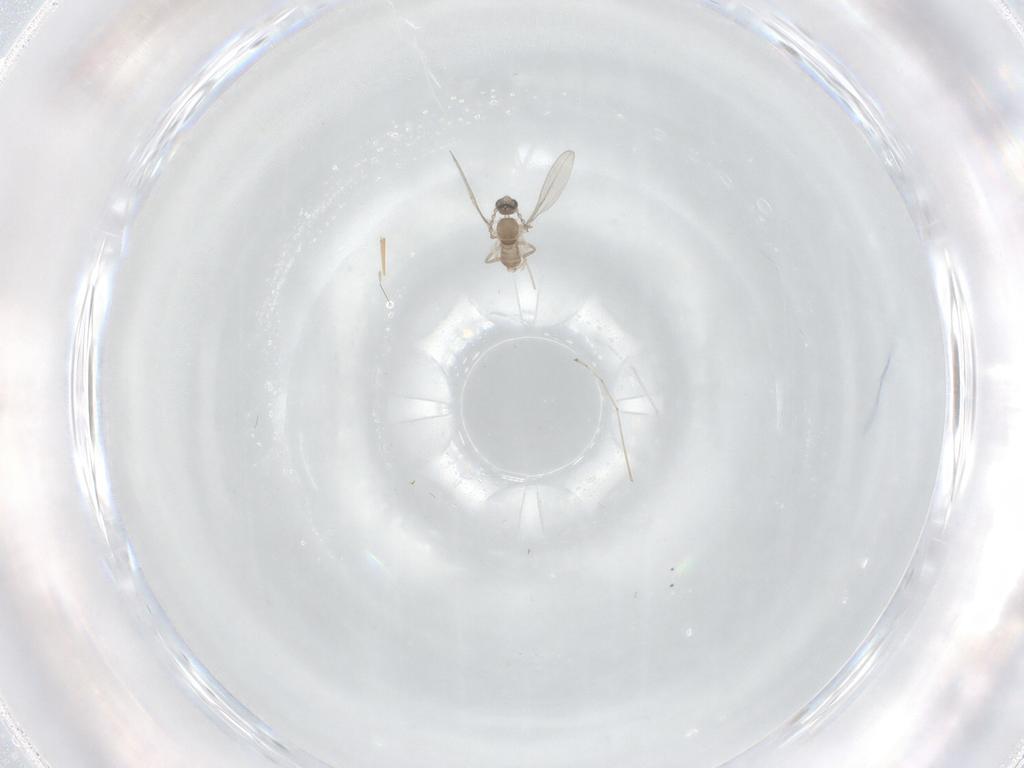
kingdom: Animalia
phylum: Arthropoda
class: Insecta
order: Diptera
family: Cecidomyiidae
